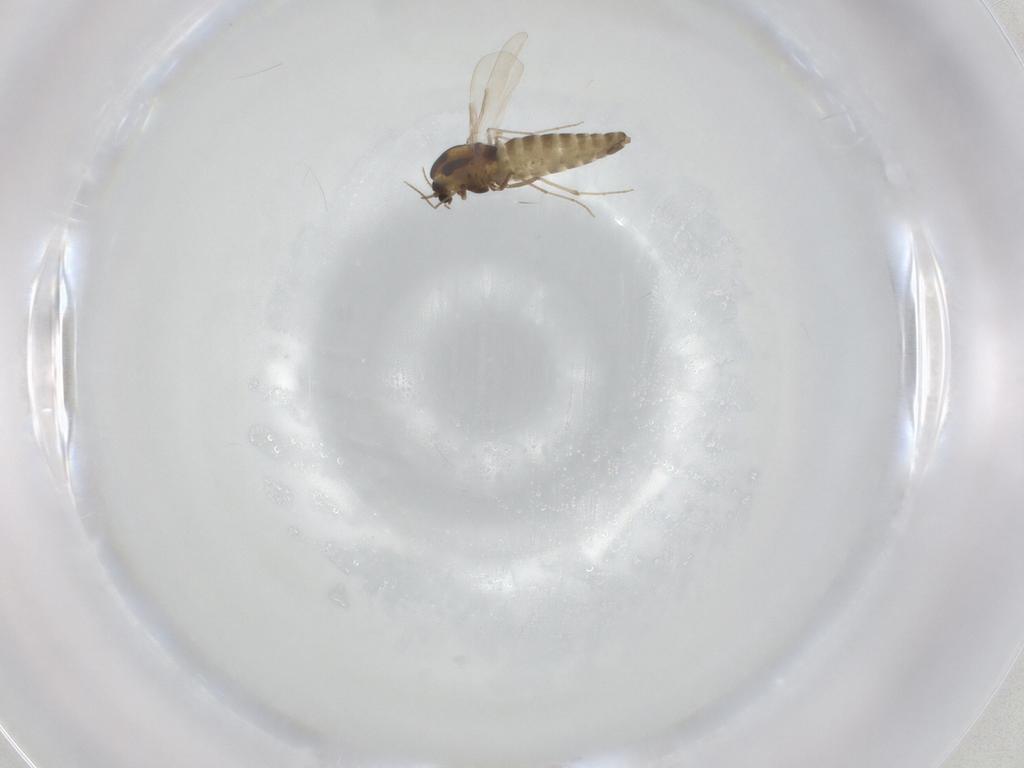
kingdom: Animalia
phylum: Arthropoda
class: Insecta
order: Diptera
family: Chironomidae
